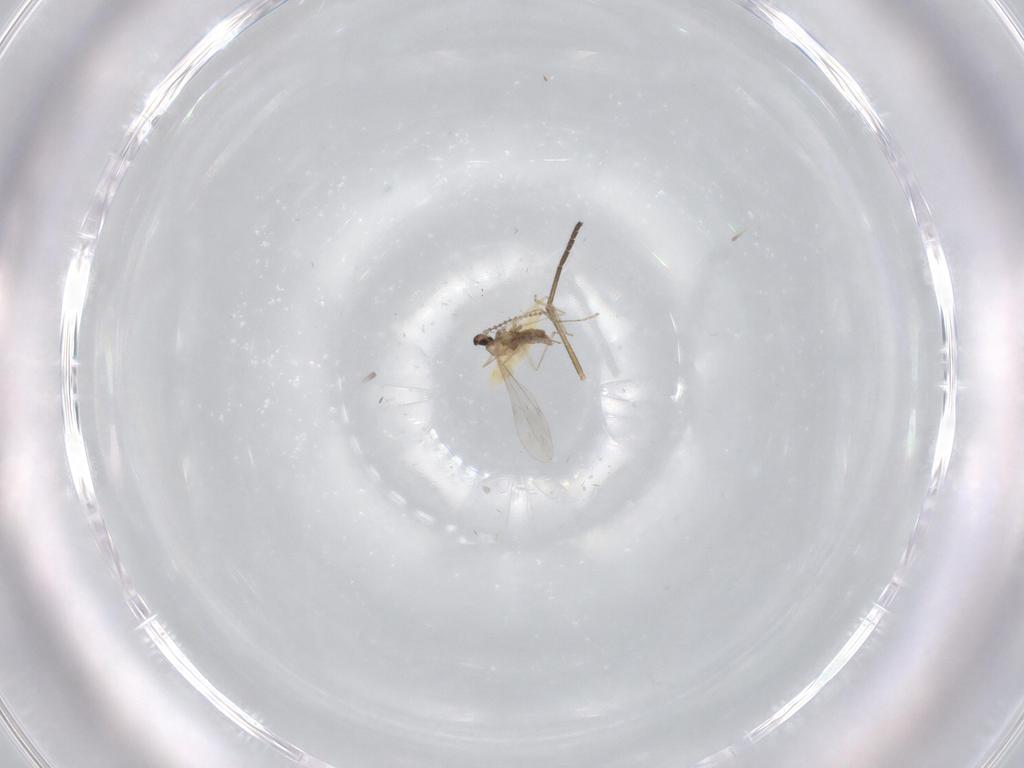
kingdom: Animalia
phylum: Arthropoda
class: Insecta
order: Diptera
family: Cecidomyiidae
